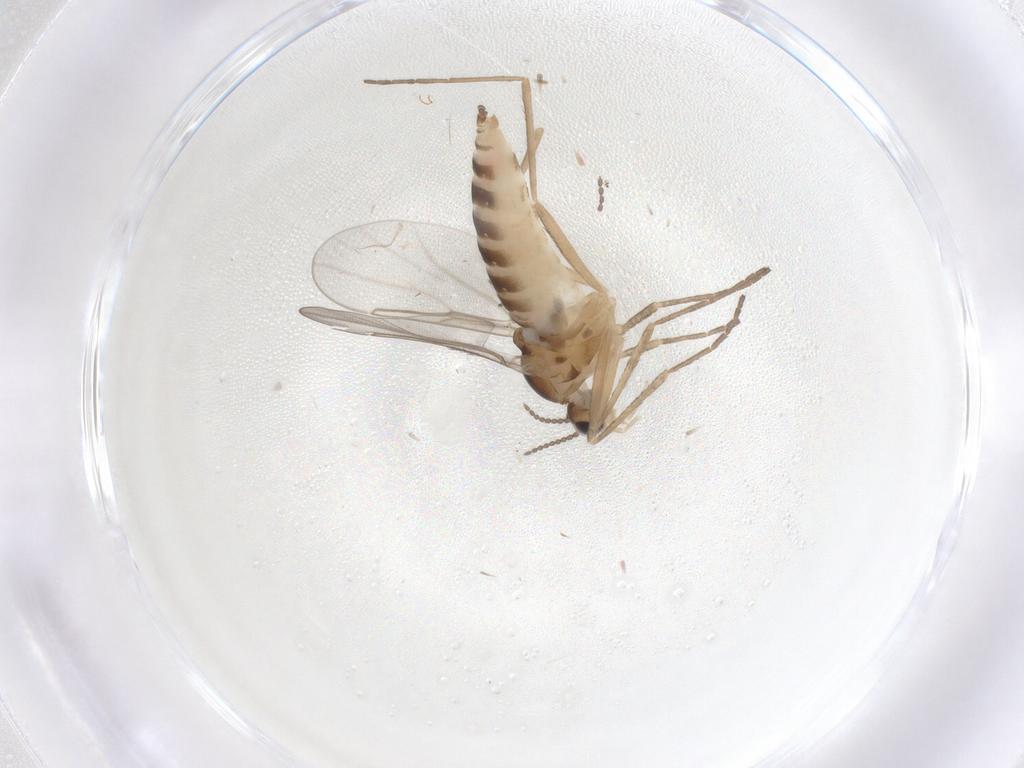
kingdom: Animalia
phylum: Arthropoda
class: Insecta
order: Diptera
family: Cecidomyiidae
